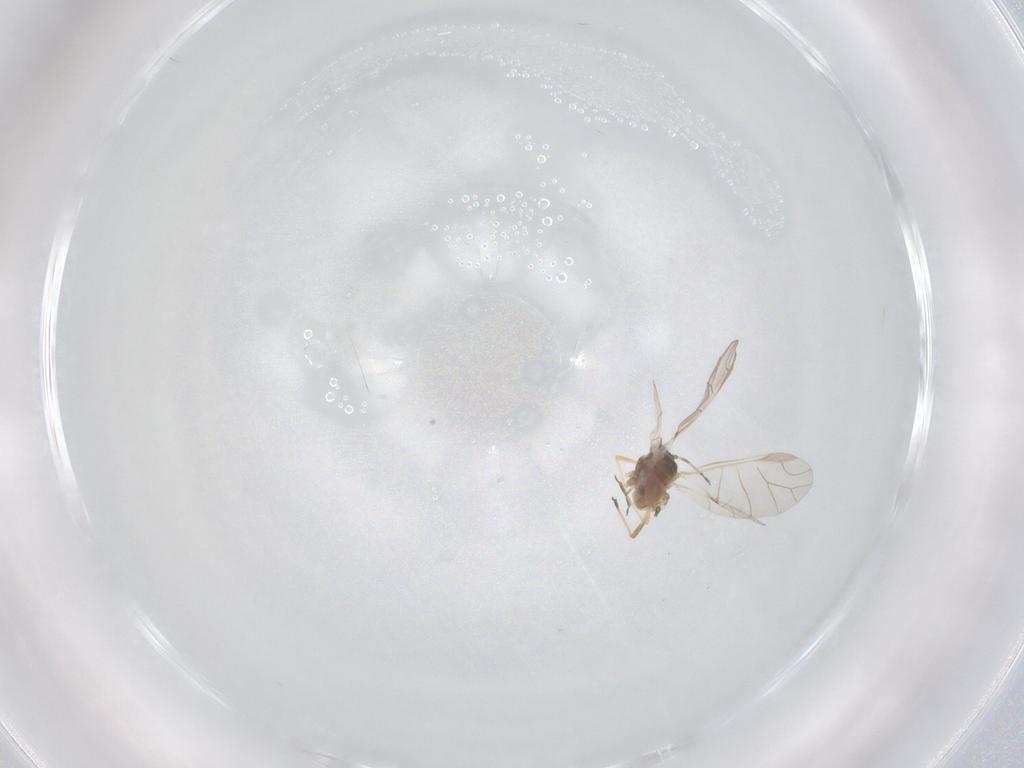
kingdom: Animalia
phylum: Arthropoda
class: Insecta
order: Hemiptera
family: Aphididae
